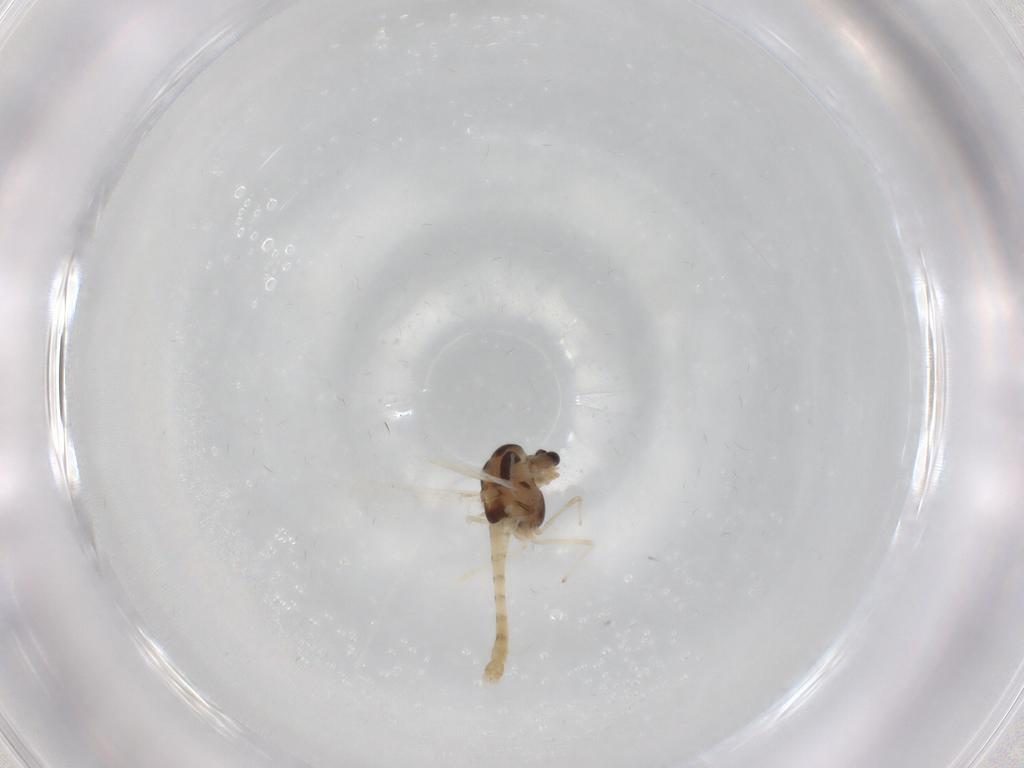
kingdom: Animalia
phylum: Arthropoda
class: Insecta
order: Diptera
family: Chironomidae
